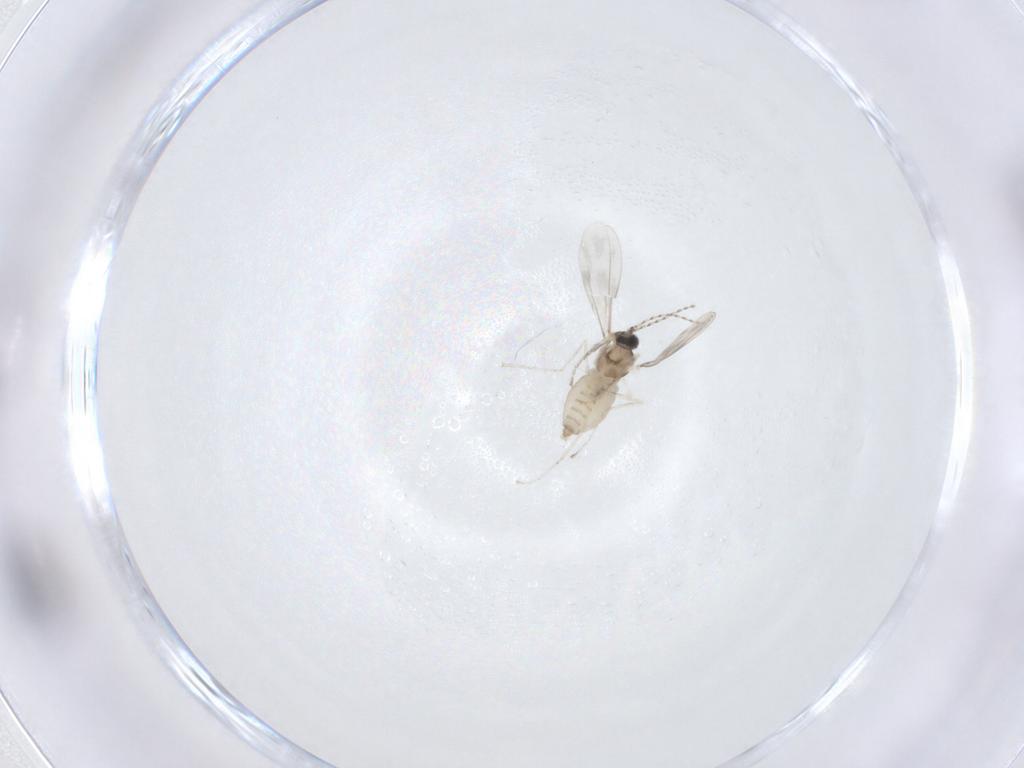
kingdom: Animalia
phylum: Arthropoda
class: Insecta
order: Diptera
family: Cecidomyiidae
